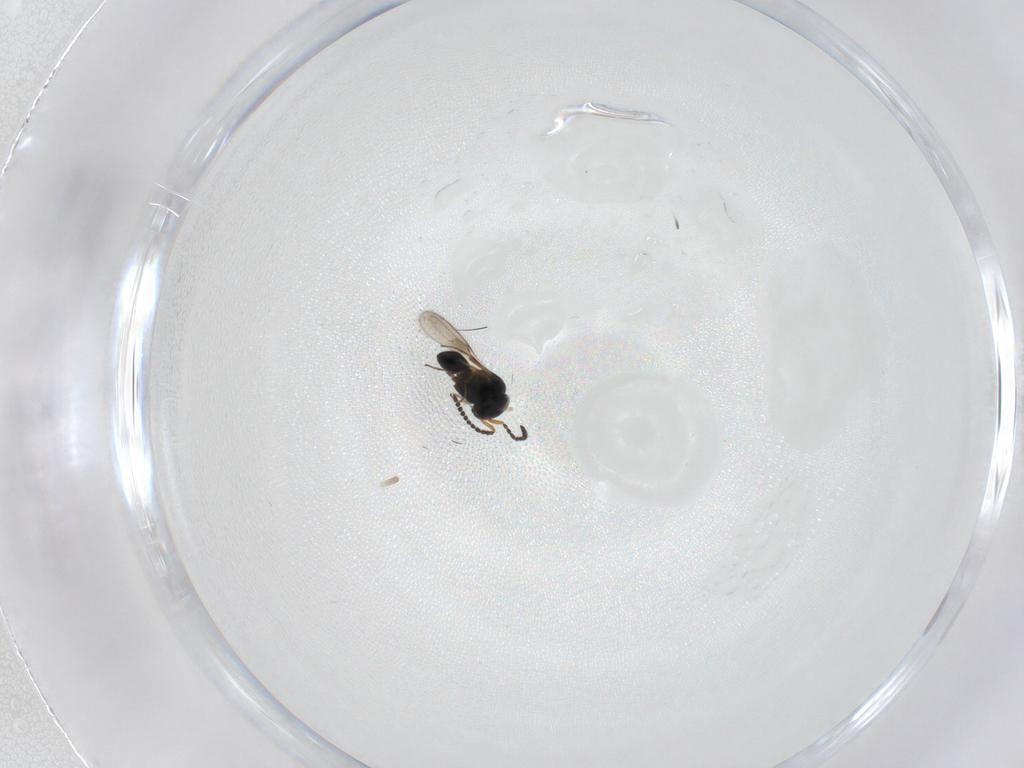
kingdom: Animalia
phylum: Arthropoda
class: Insecta
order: Hymenoptera
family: Scelionidae
